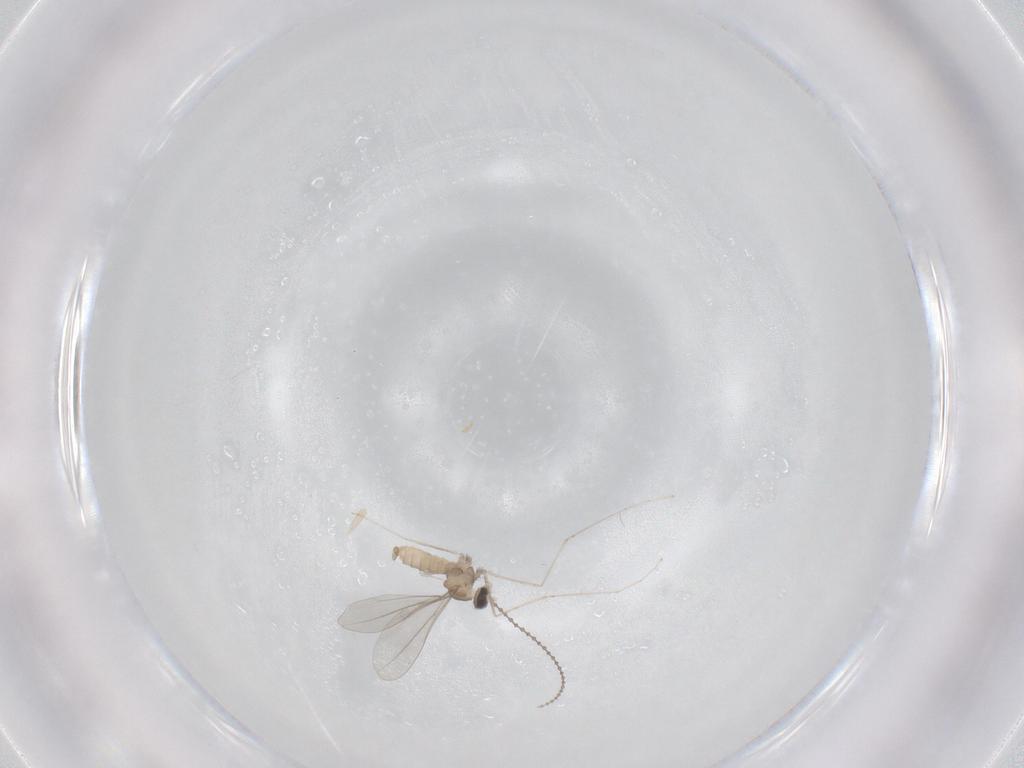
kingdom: Animalia
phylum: Arthropoda
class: Insecta
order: Diptera
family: Cecidomyiidae
